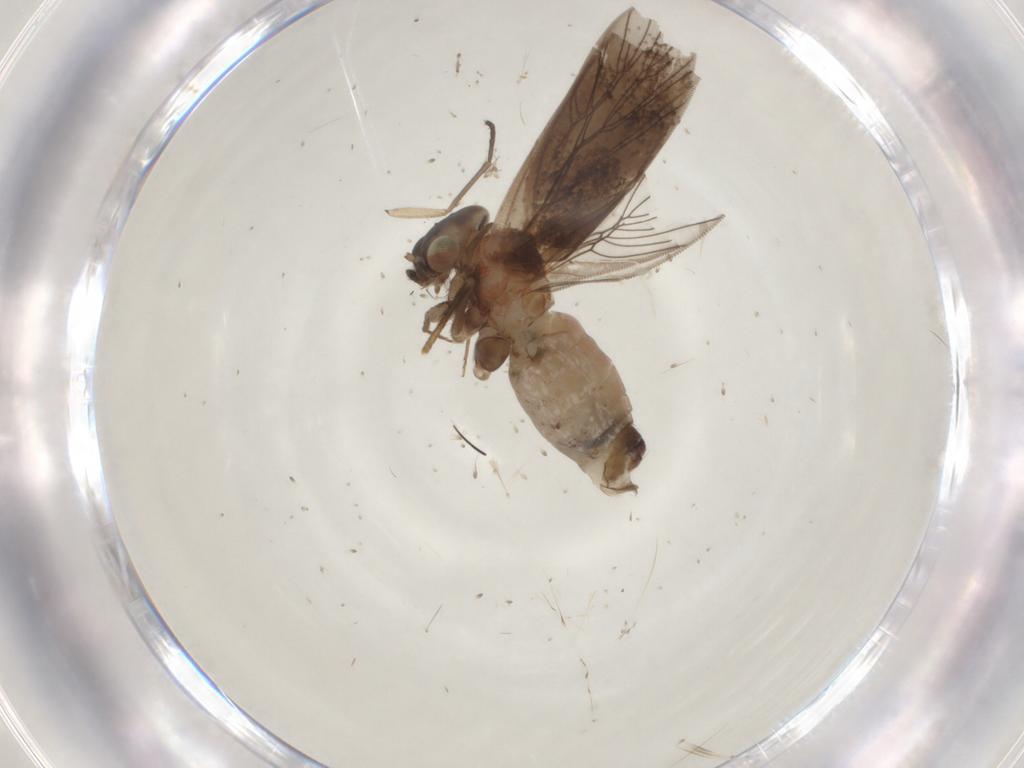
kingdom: Animalia
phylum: Arthropoda
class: Insecta
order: Psocodea
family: Lepidopsocidae
